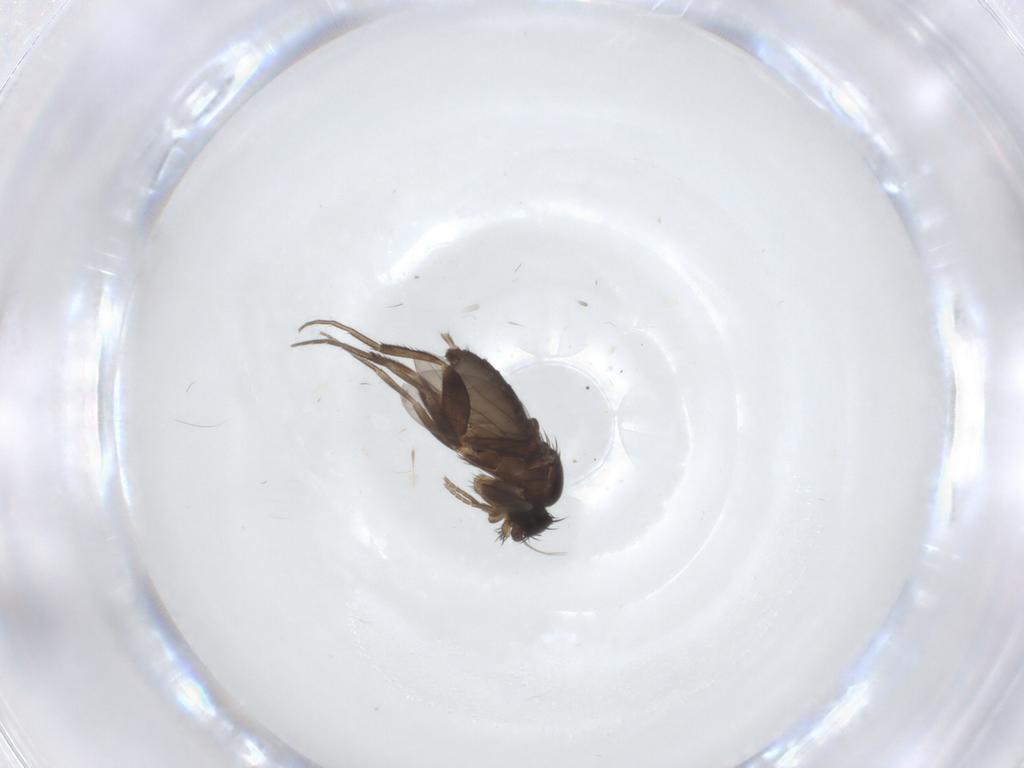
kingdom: Animalia
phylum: Arthropoda
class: Insecta
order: Diptera
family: Phoridae
